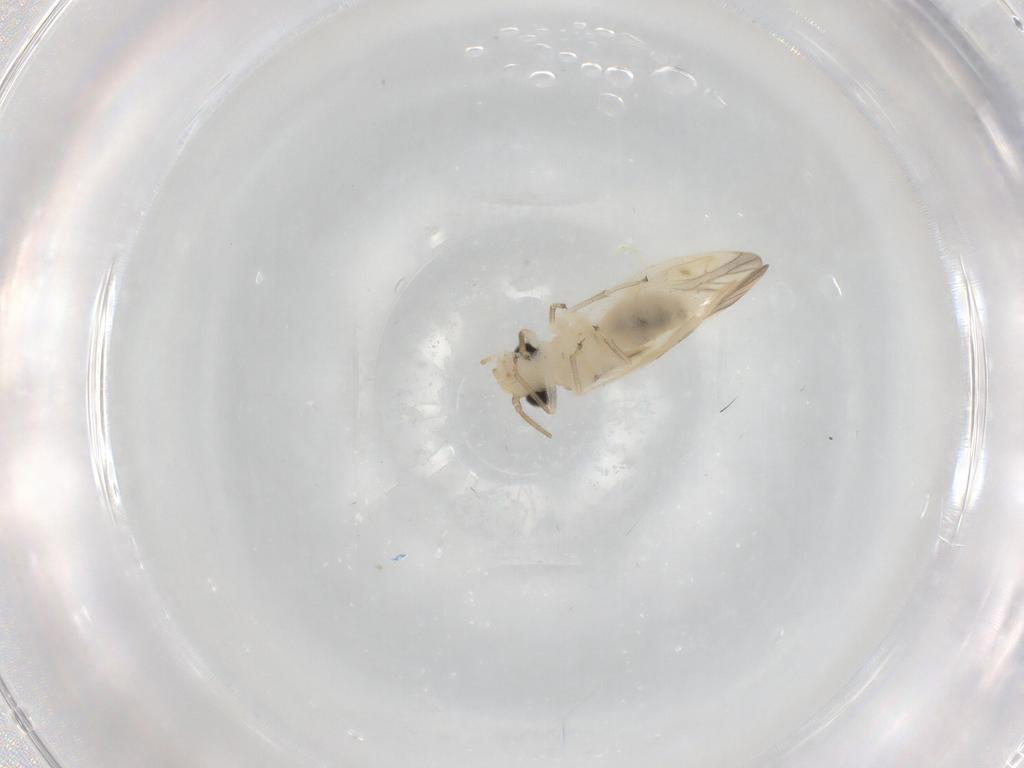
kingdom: Animalia
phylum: Arthropoda
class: Insecta
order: Psocodea
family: Caeciliusidae
